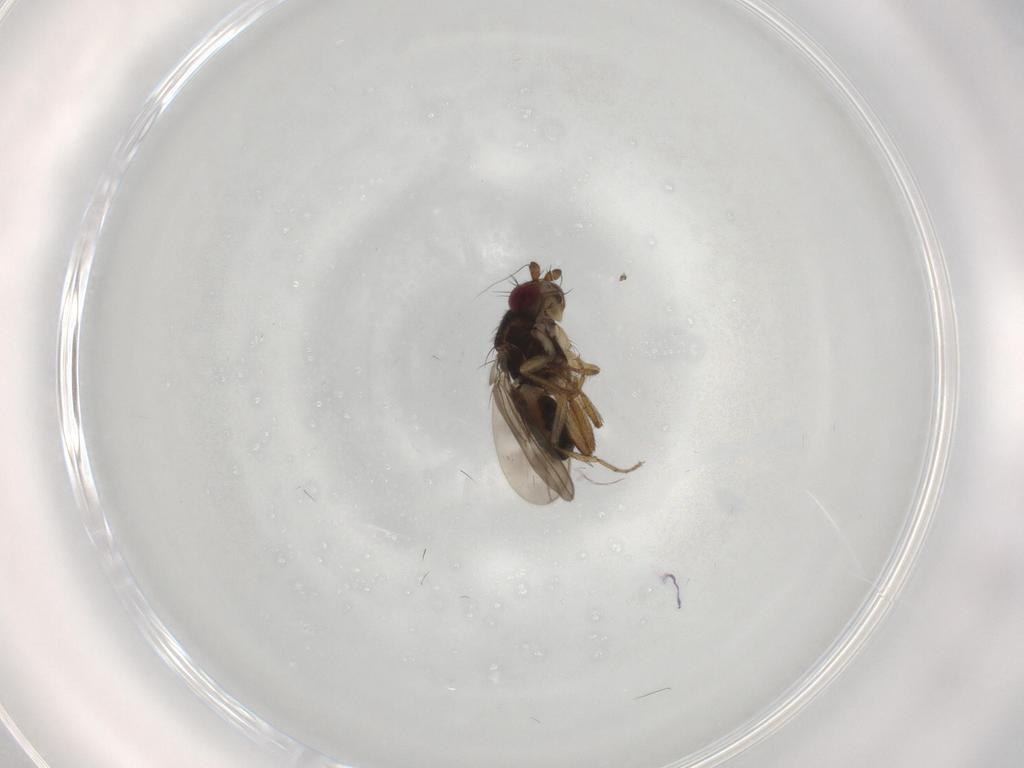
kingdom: Animalia
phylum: Arthropoda
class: Insecta
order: Diptera
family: Sphaeroceridae
